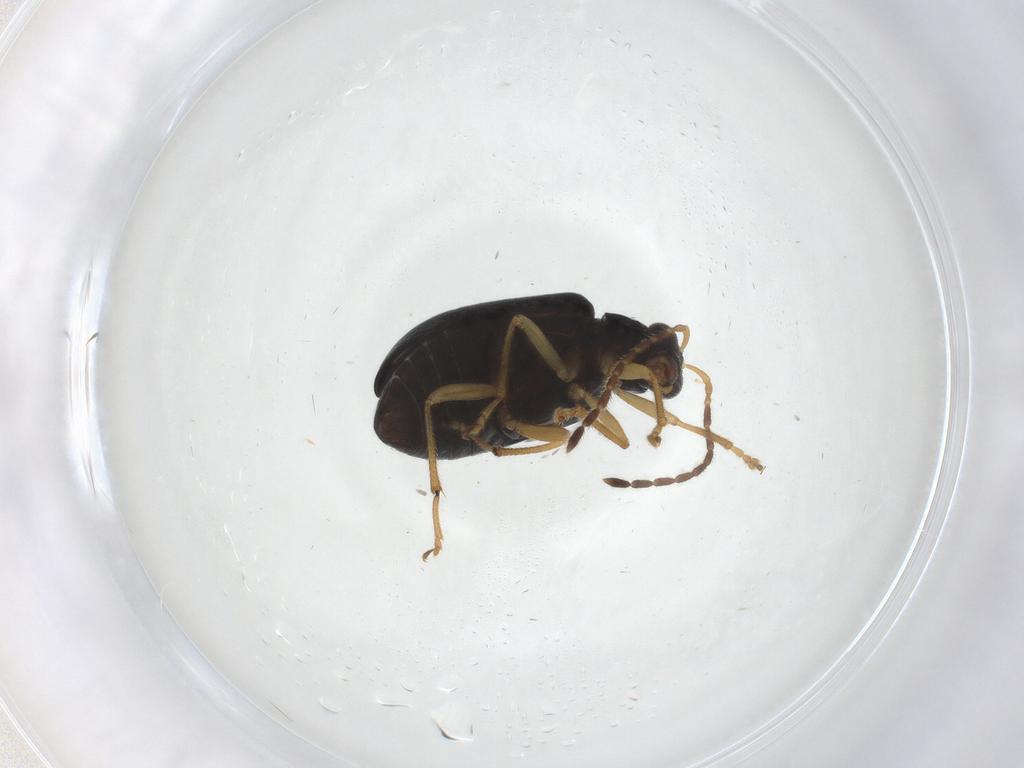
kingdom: Animalia
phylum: Arthropoda
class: Insecta
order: Coleoptera
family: Chrysomelidae
